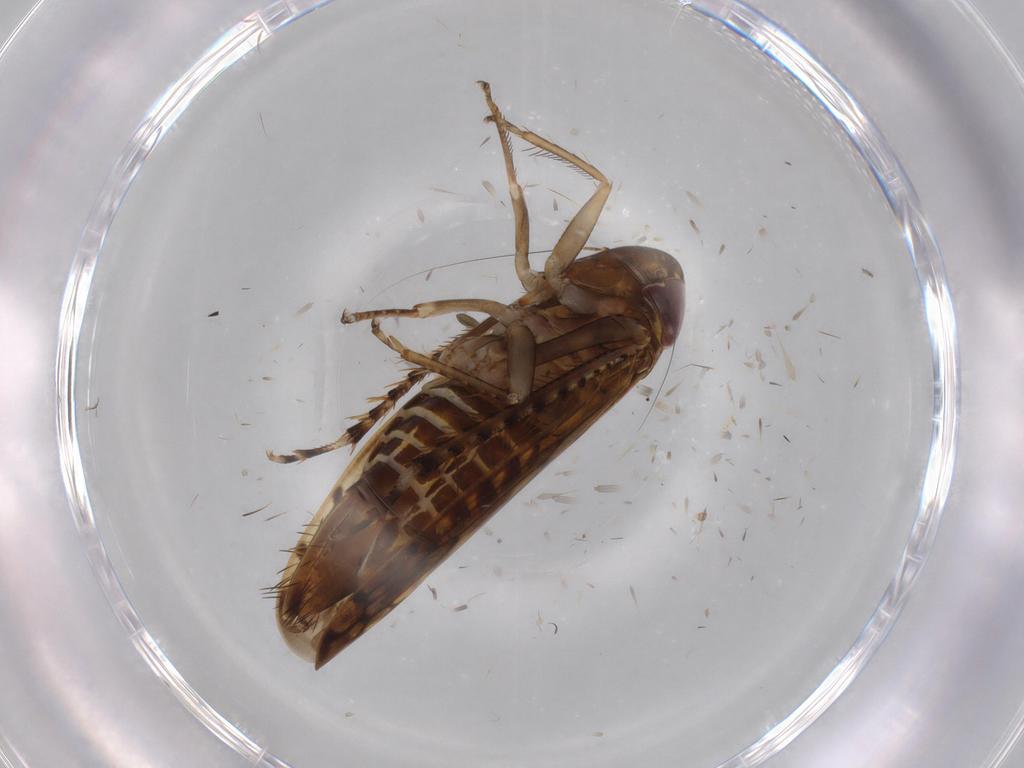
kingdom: Animalia
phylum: Arthropoda
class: Insecta
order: Hemiptera
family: Cicadellidae
